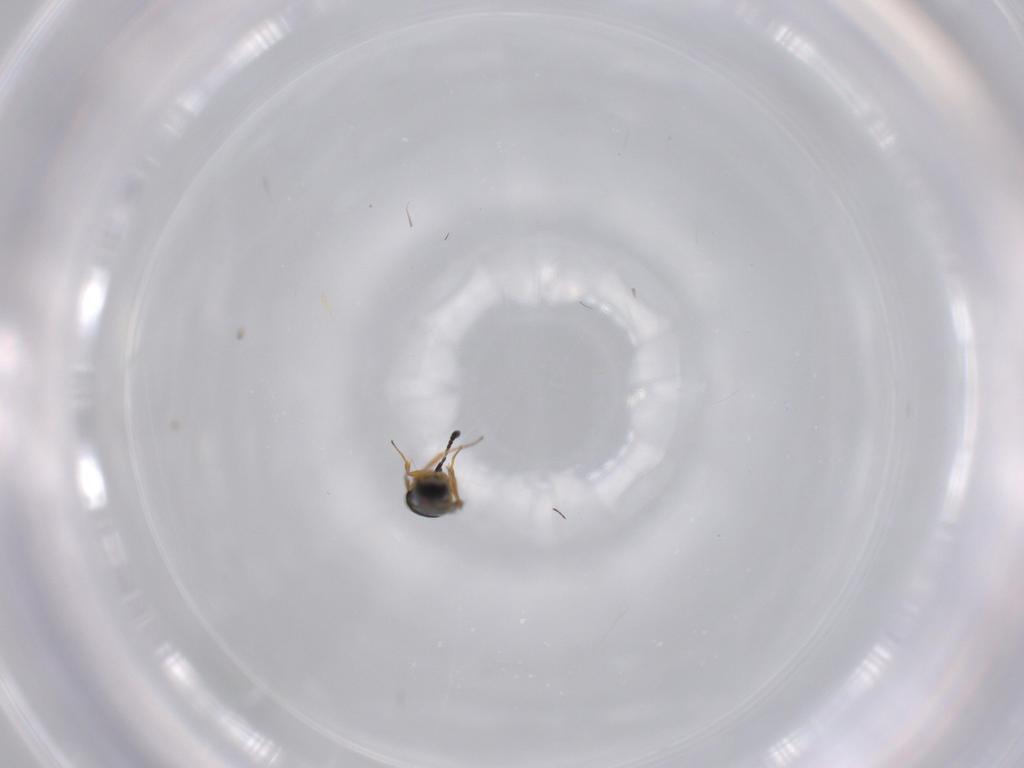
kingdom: Animalia
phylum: Arthropoda
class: Insecta
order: Hymenoptera
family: Scelionidae
